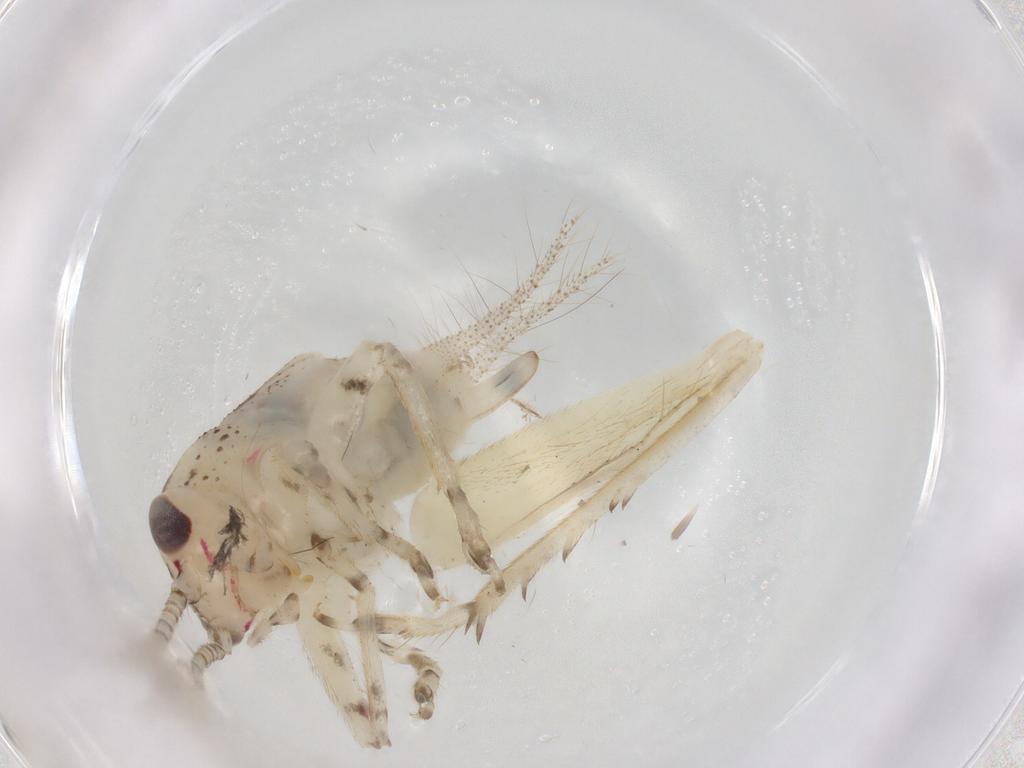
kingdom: Animalia
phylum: Arthropoda
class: Insecta
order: Orthoptera
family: Trigonidiidae
